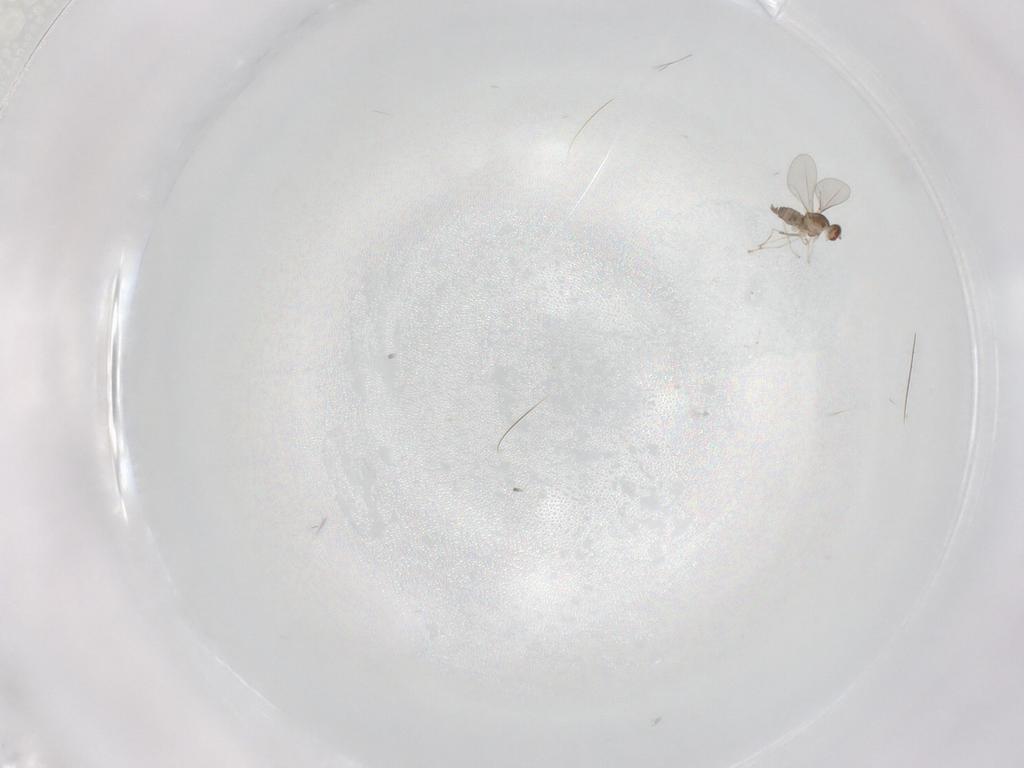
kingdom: Animalia
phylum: Arthropoda
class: Insecta
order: Diptera
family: Cecidomyiidae
